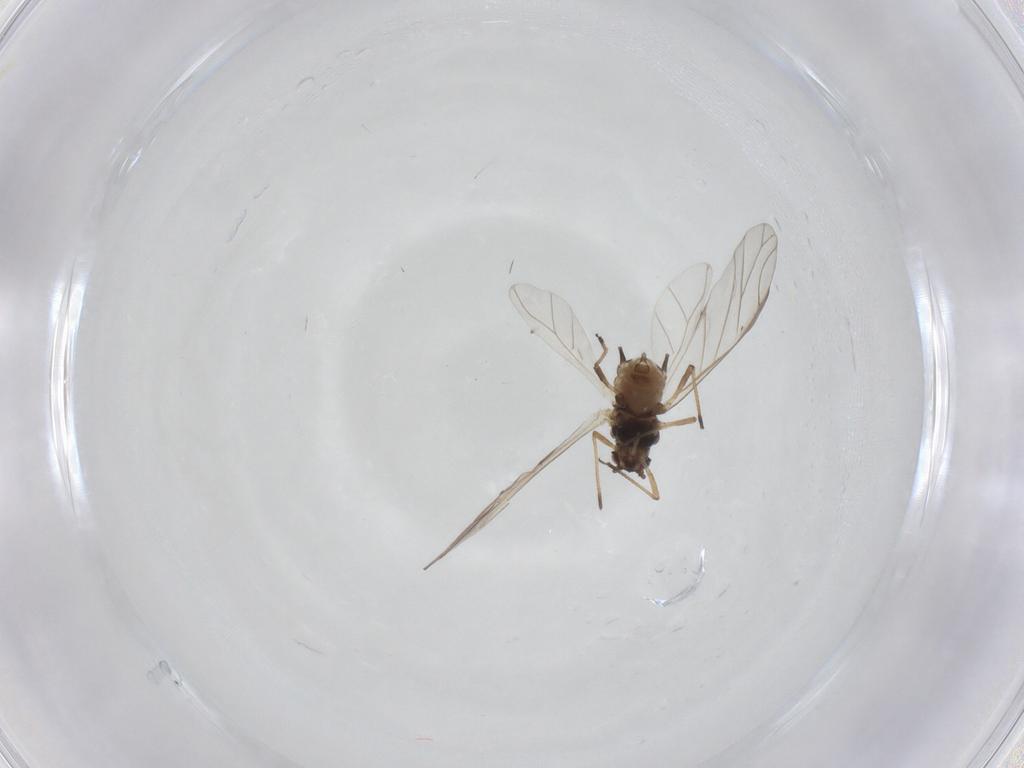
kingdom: Animalia
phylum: Arthropoda
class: Insecta
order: Hemiptera
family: Aphididae
